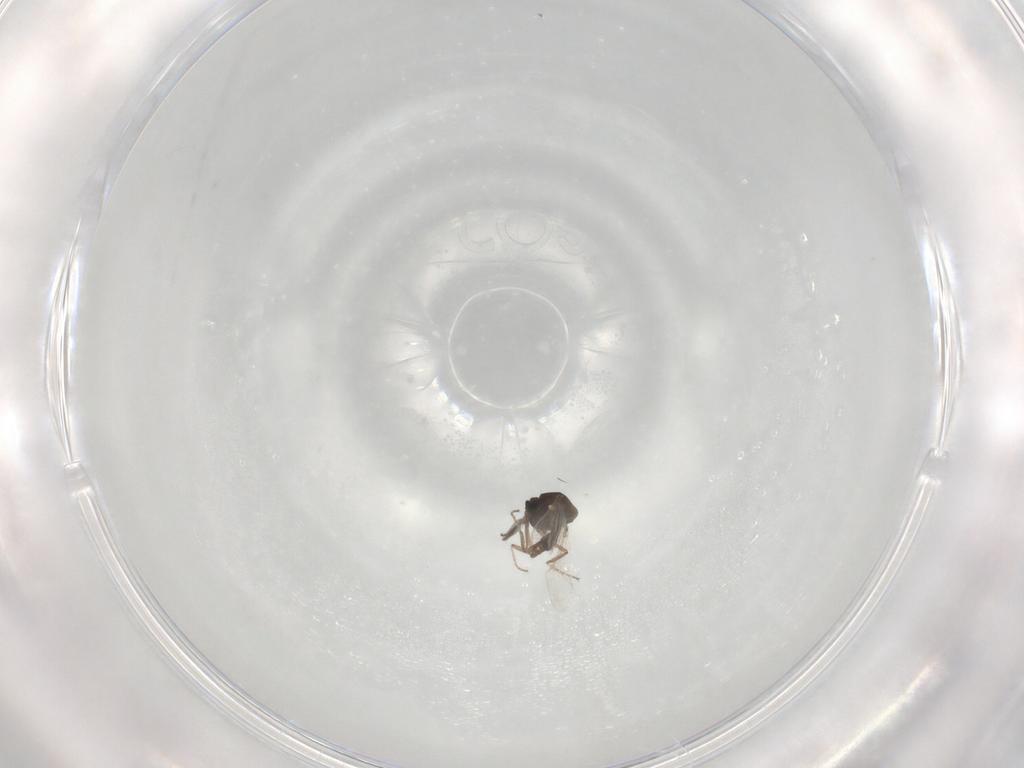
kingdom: Animalia
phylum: Arthropoda
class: Insecta
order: Diptera
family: Ceratopogonidae
